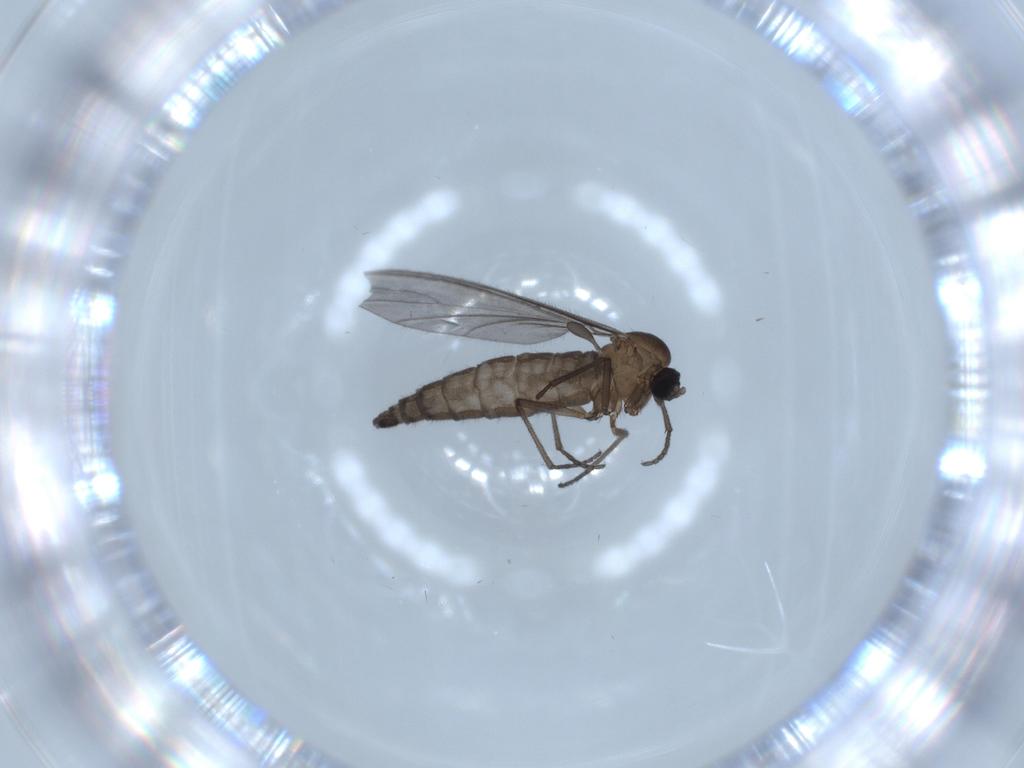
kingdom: Animalia
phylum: Arthropoda
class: Insecta
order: Diptera
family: Sciaridae
